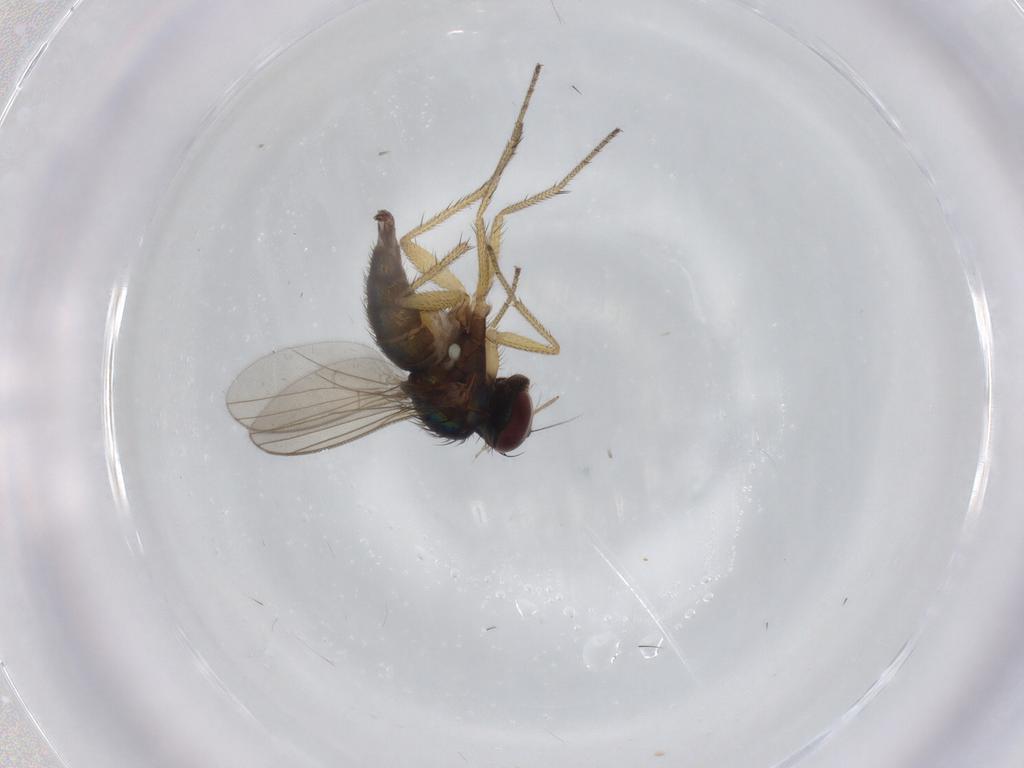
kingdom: Animalia
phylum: Arthropoda
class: Insecta
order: Diptera
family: Dolichopodidae
